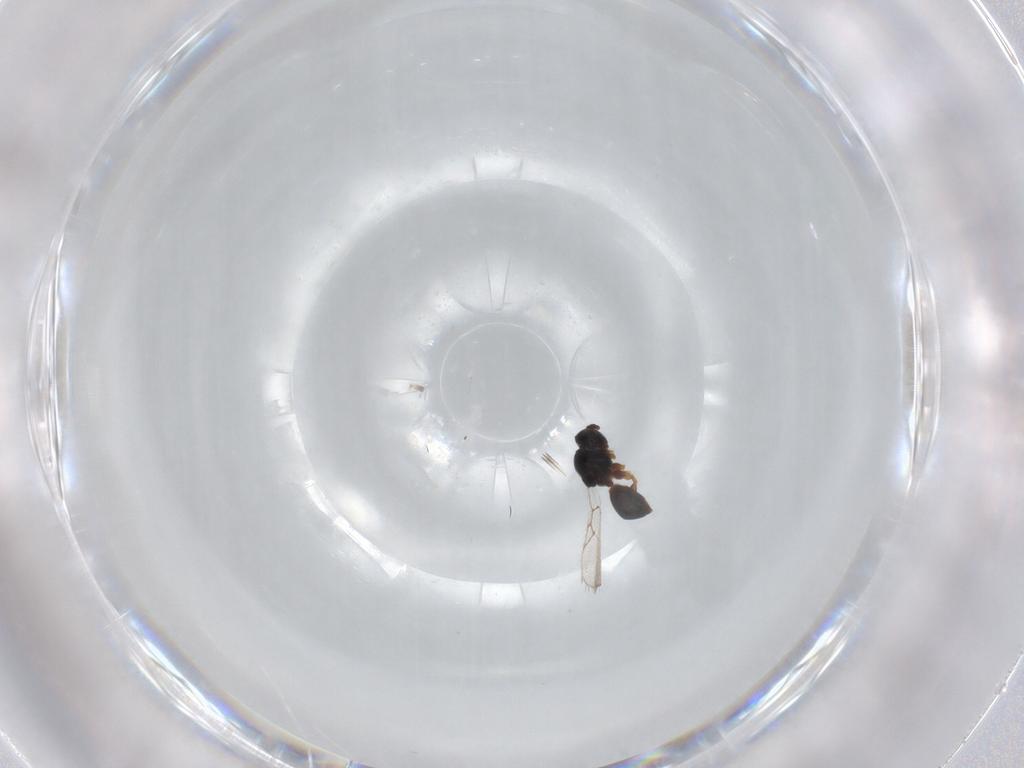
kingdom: Animalia
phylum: Arthropoda
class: Insecta
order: Hymenoptera
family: Figitidae
